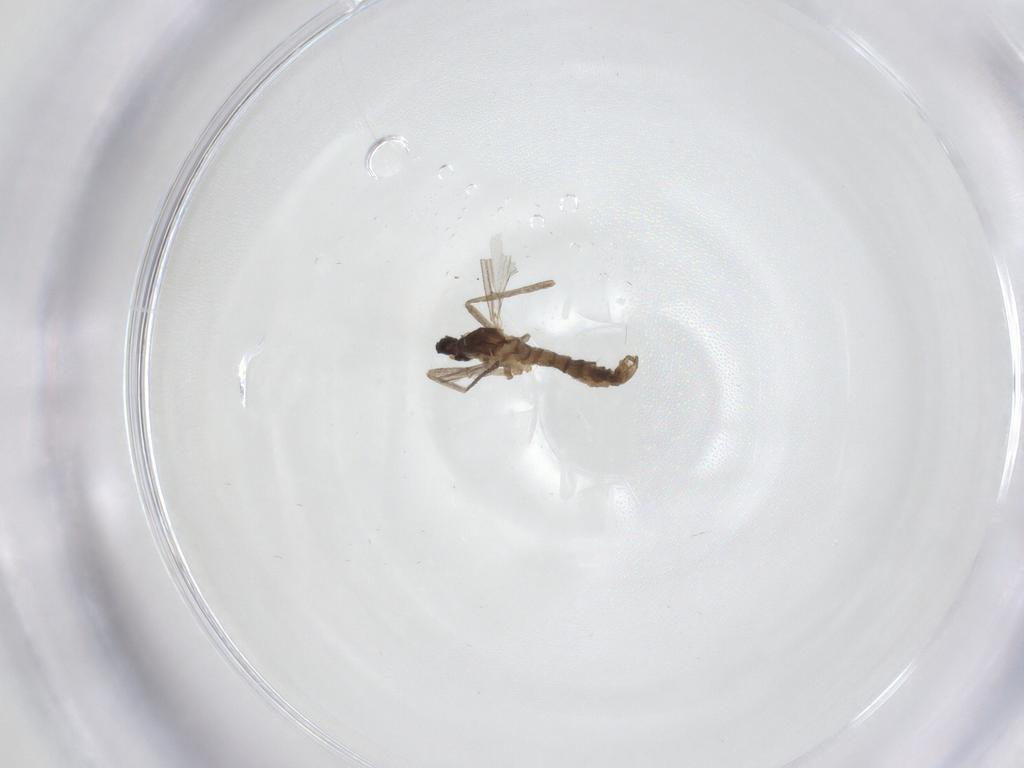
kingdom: Animalia
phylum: Arthropoda
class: Insecta
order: Diptera
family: Cecidomyiidae
